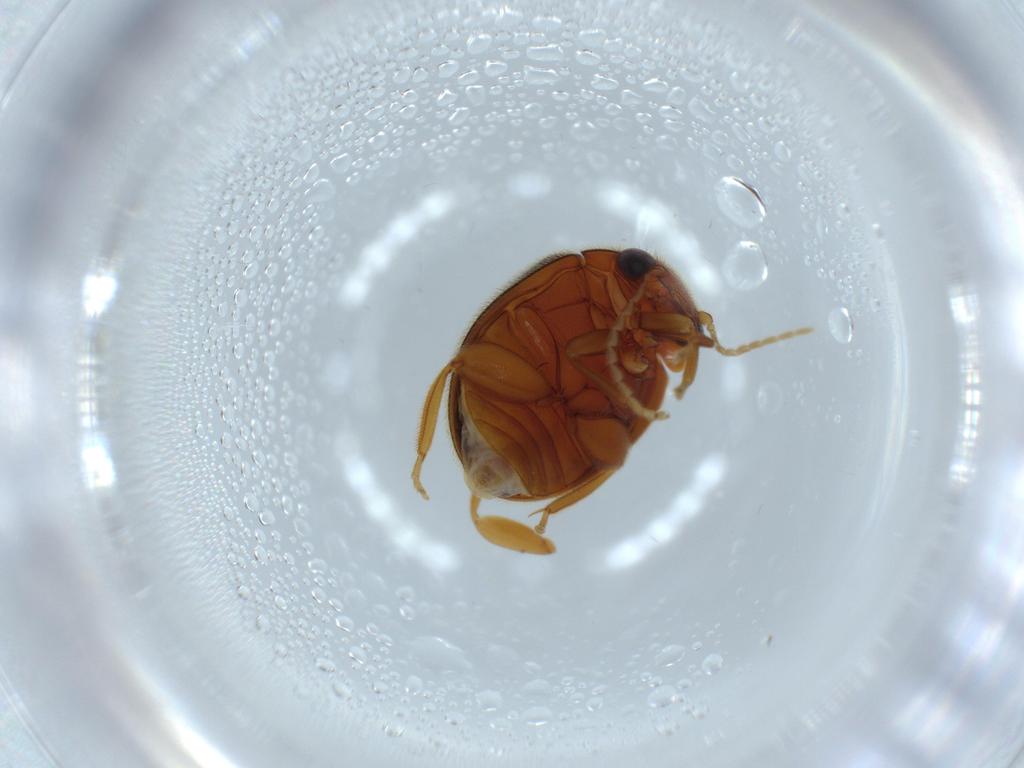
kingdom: Animalia
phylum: Arthropoda
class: Insecta
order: Coleoptera
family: Scirtidae
